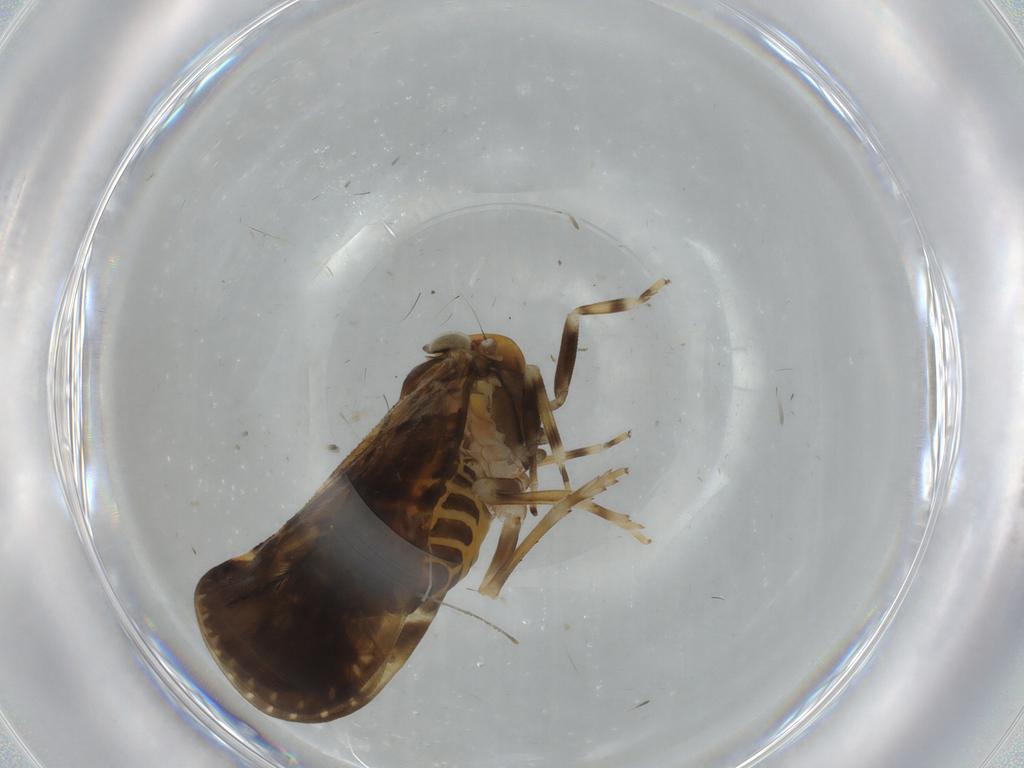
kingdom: Animalia
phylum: Arthropoda
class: Insecta
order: Hemiptera
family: Cixiidae
